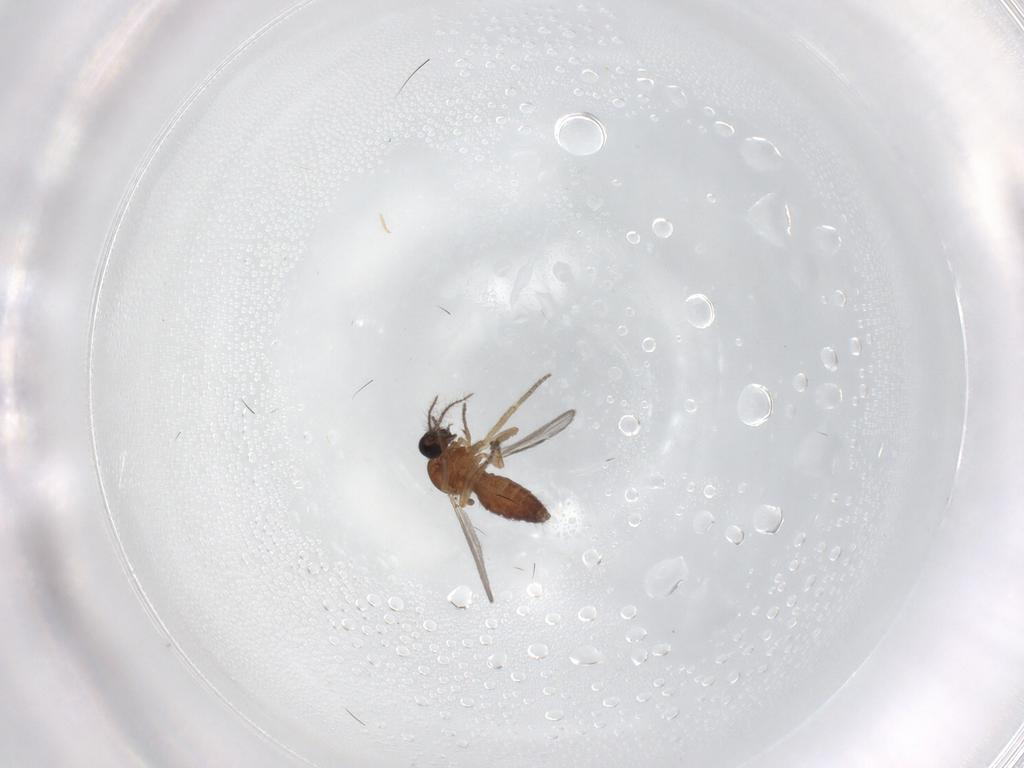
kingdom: Animalia
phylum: Arthropoda
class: Insecta
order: Diptera
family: Ceratopogonidae
